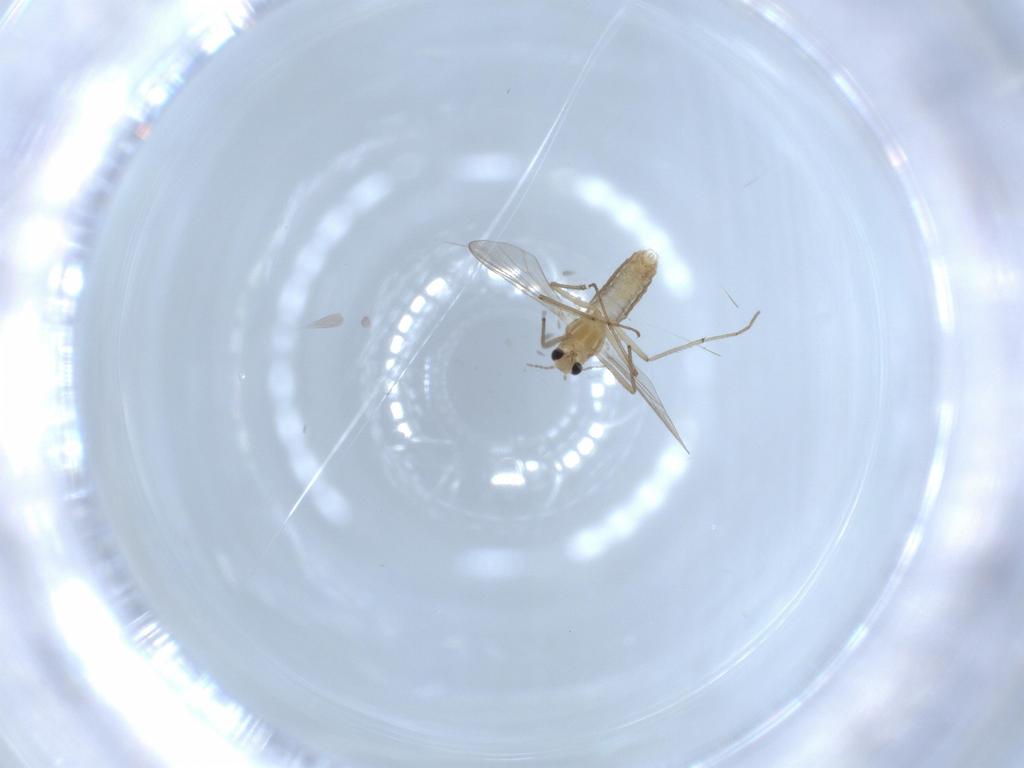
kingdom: Animalia
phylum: Arthropoda
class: Insecta
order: Diptera
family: Chironomidae
